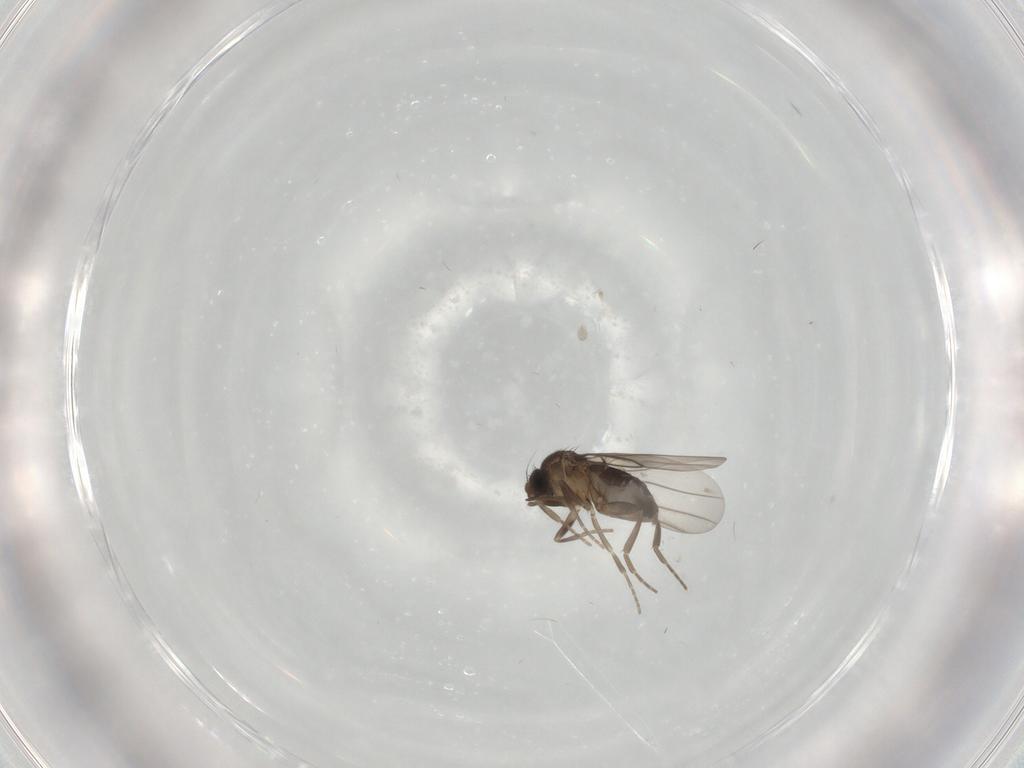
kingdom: Animalia
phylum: Arthropoda
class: Insecta
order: Diptera
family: Phoridae
